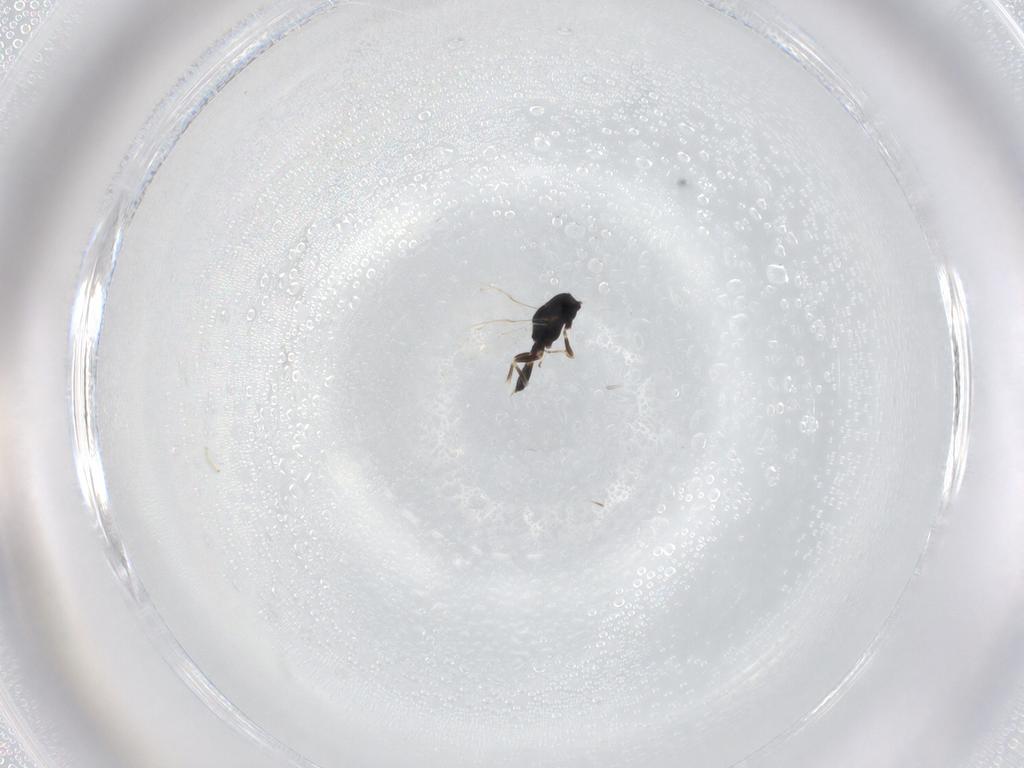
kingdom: Animalia
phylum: Arthropoda
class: Insecta
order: Hymenoptera
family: Pteromalidae
